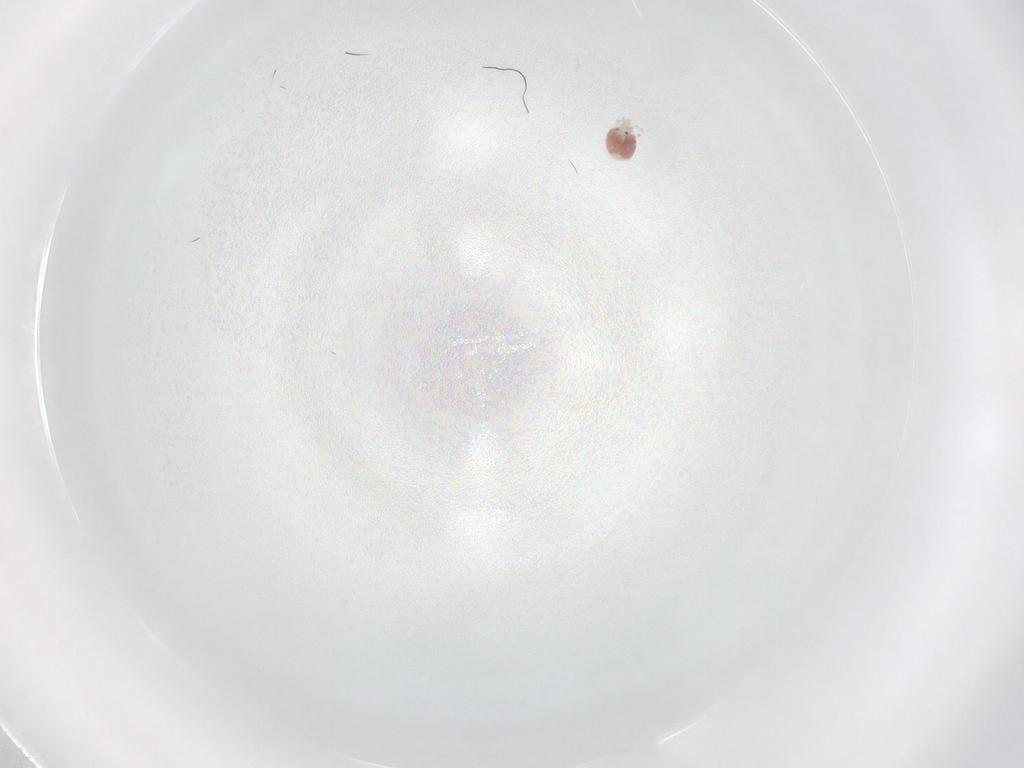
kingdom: Animalia
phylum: Arthropoda
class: Arachnida
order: Trombidiformes
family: Hygrobatidae
